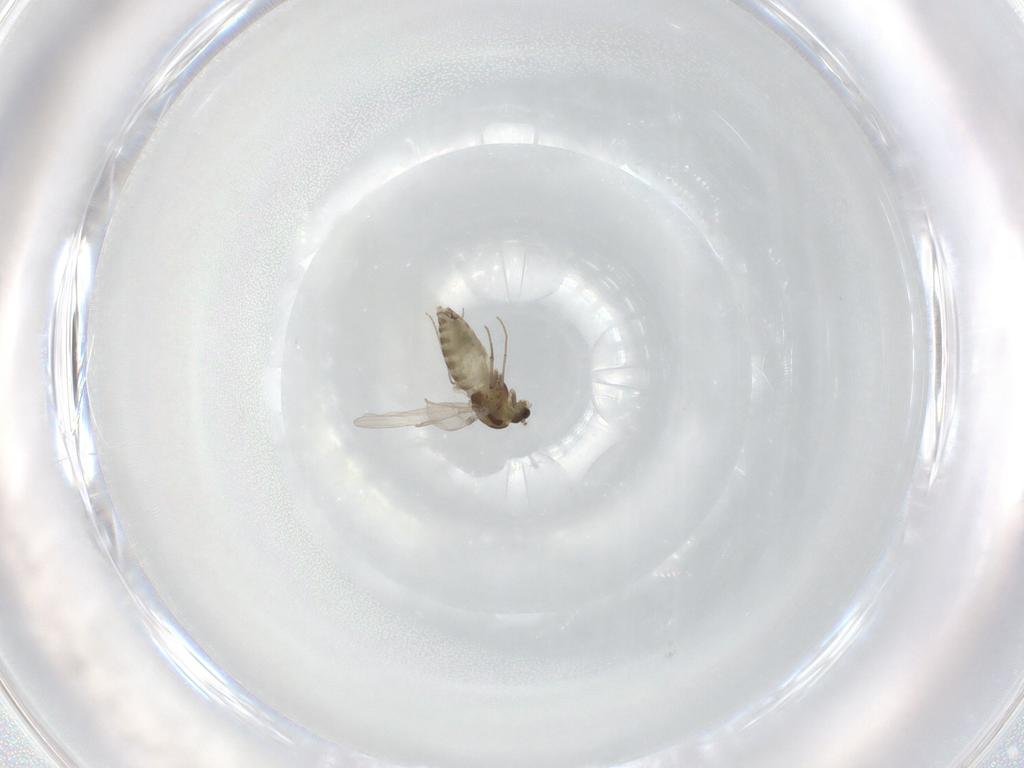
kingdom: Animalia
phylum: Arthropoda
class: Insecta
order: Diptera
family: Chironomidae
